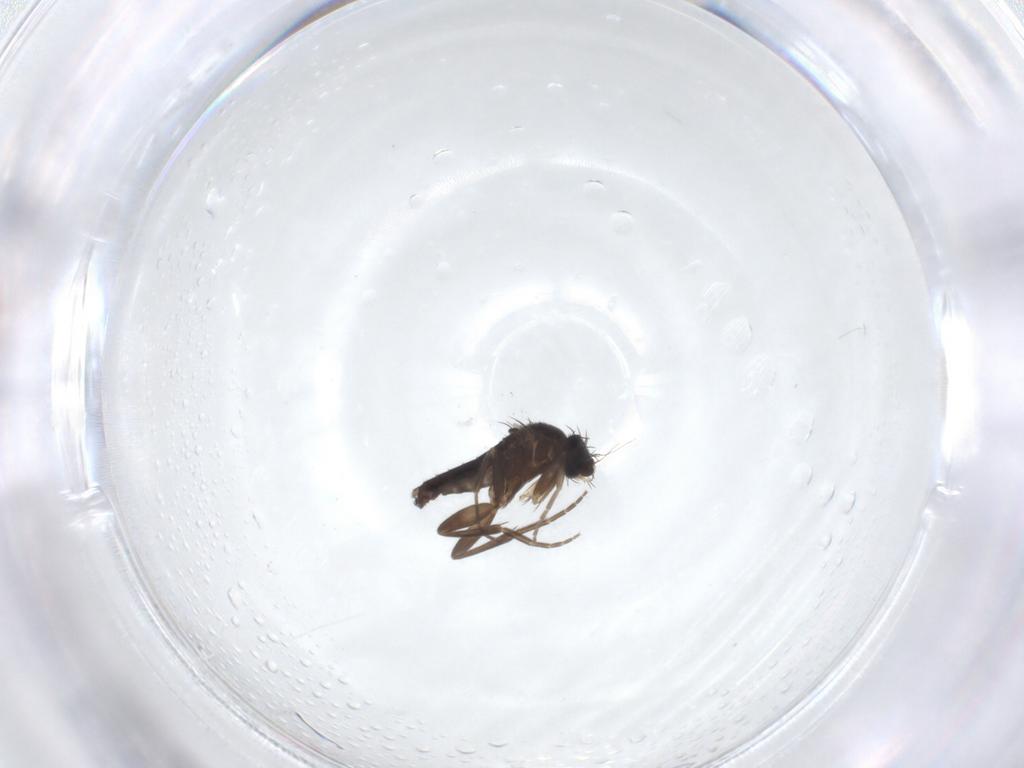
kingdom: Animalia
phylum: Arthropoda
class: Insecta
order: Diptera
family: Phoridae
